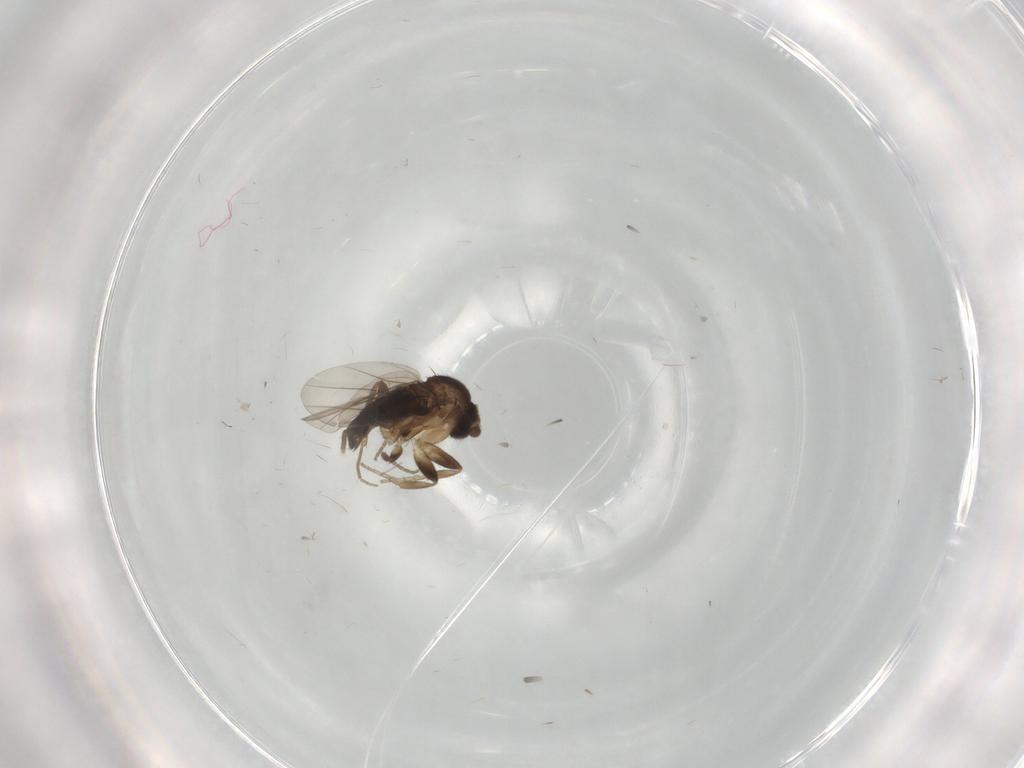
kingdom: Animalia
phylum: Arthropoda
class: Insecta
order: Diptera
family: Phoridae
